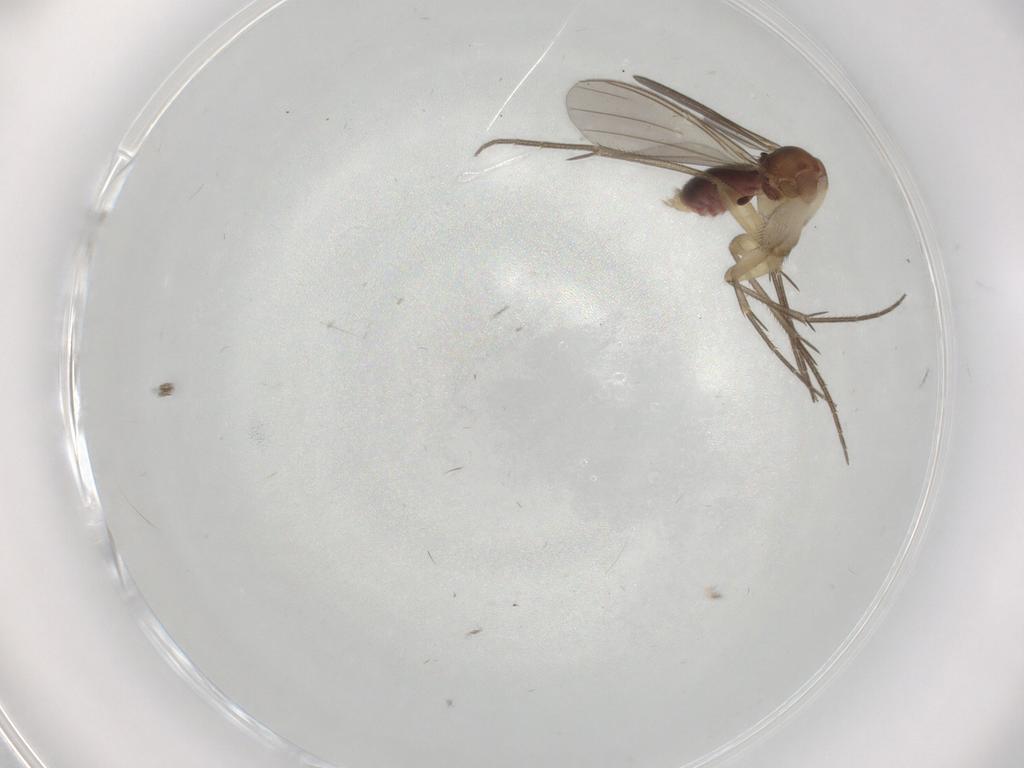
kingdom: Animalia
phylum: Arthropoda
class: Insecta
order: Diptera
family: Mycetophilidae
